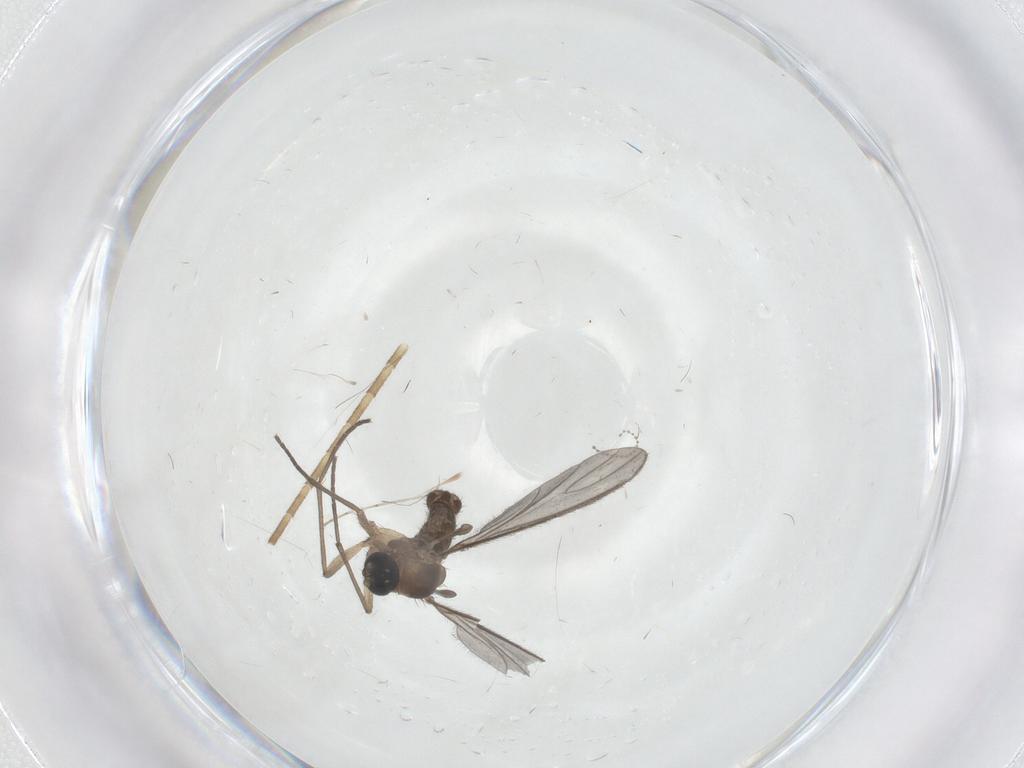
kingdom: Animalia
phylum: Arthropoda
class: Insecta
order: Diptera
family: Sciaridae
